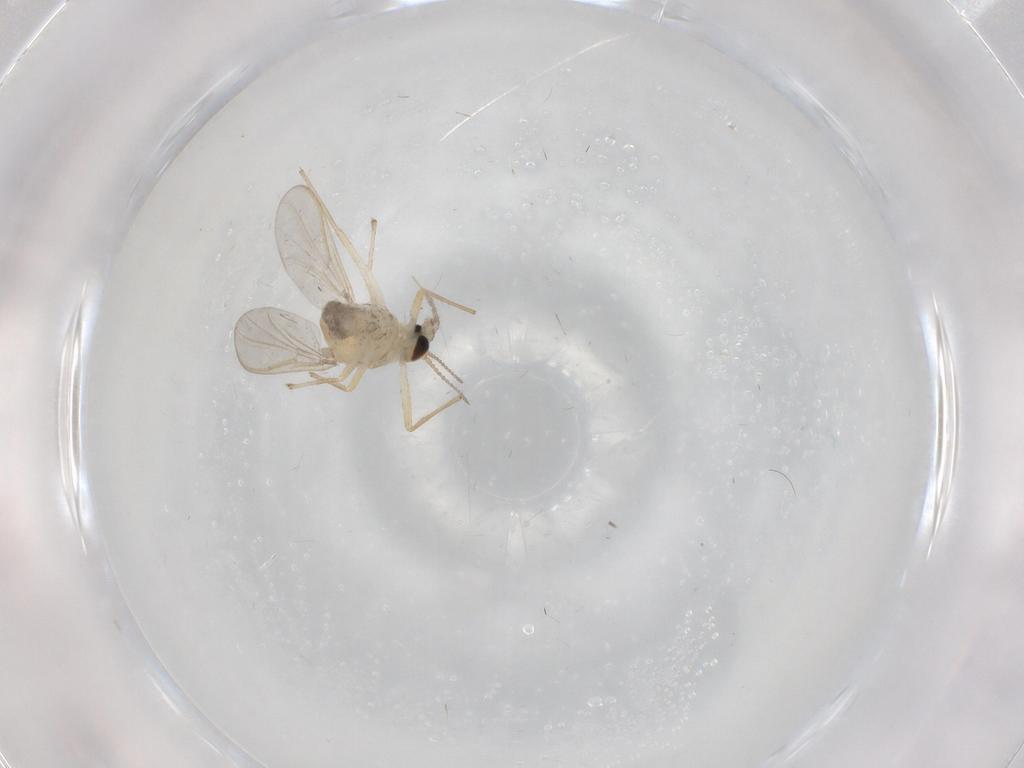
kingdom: Animalia
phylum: Arthropoda
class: Insecta
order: Diptera
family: Chironomidae
